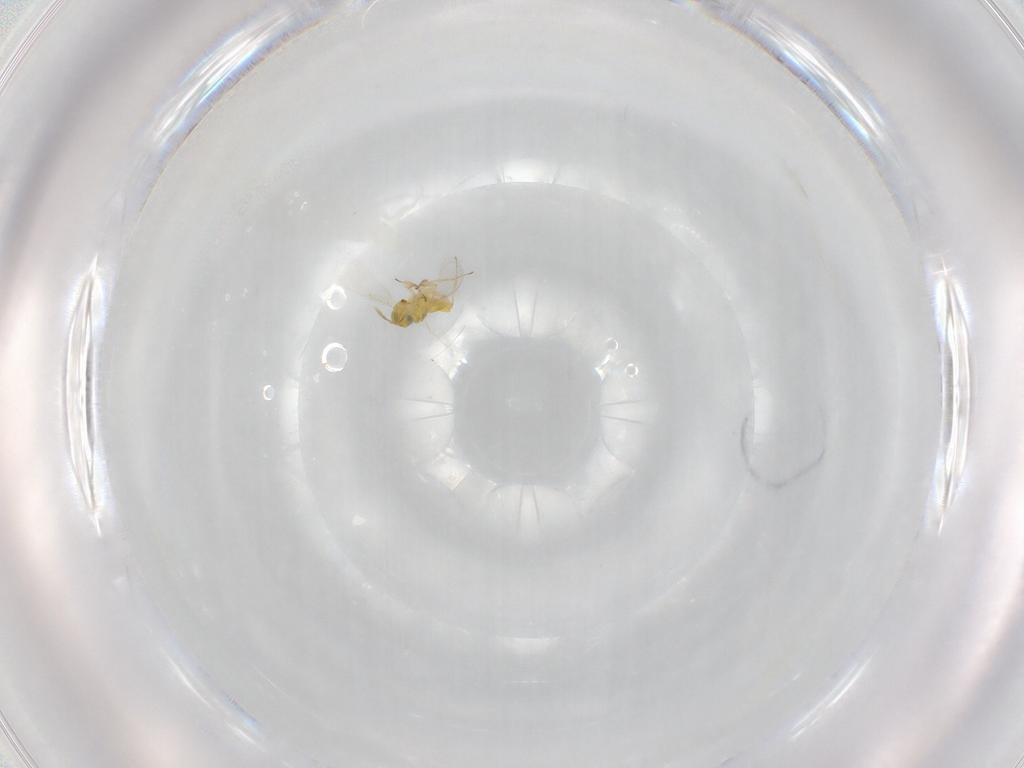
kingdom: Animalia
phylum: Arthropoda
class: Insecta
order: Hymenoptera
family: Aphelinidae
